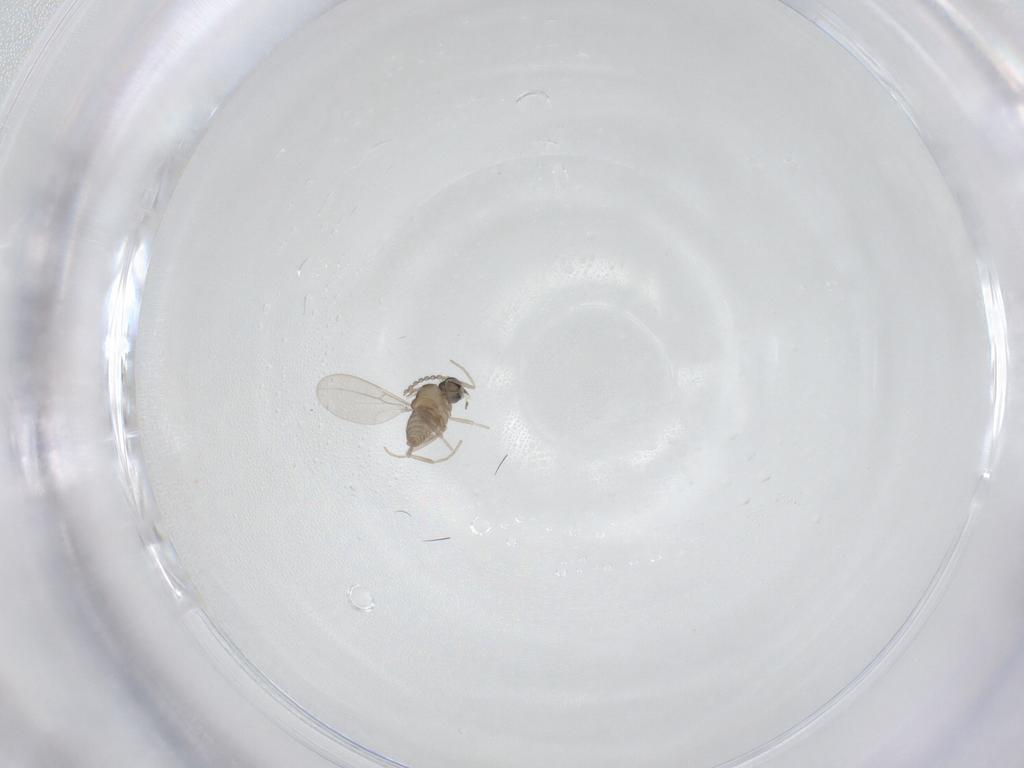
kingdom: Animalia
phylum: Arthropoda
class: Insecta
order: Diptera
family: Cecidomyiidae
